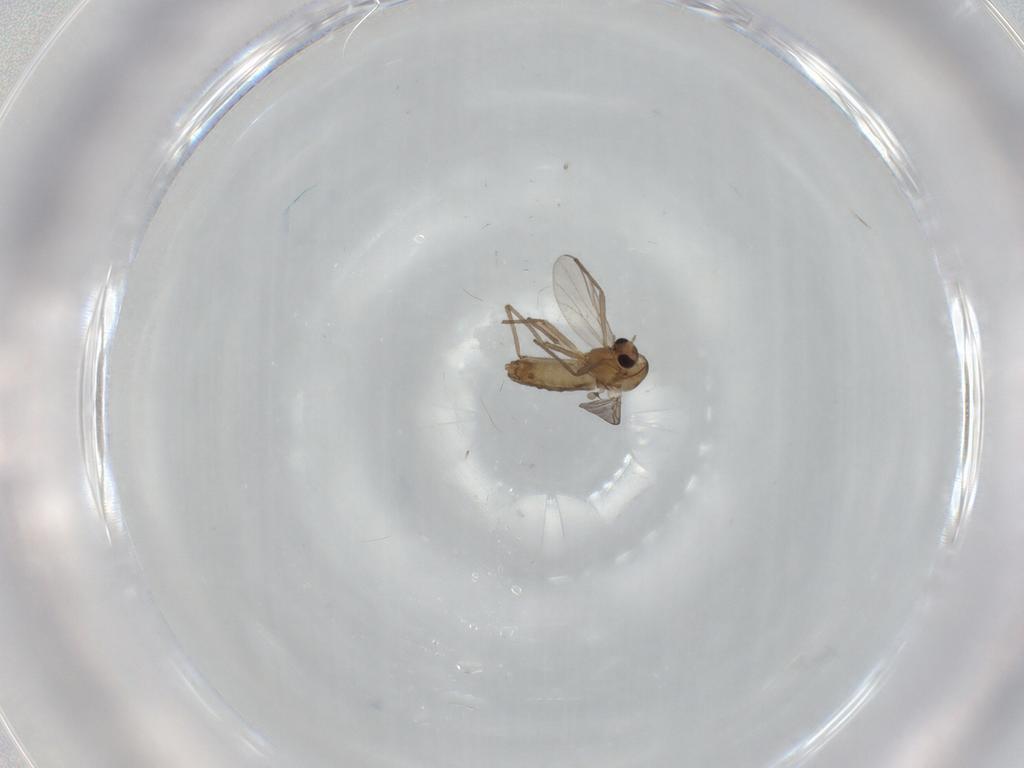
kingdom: Animalia
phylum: Arthropoda
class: Insecta
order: Diptera
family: Chironomidae
